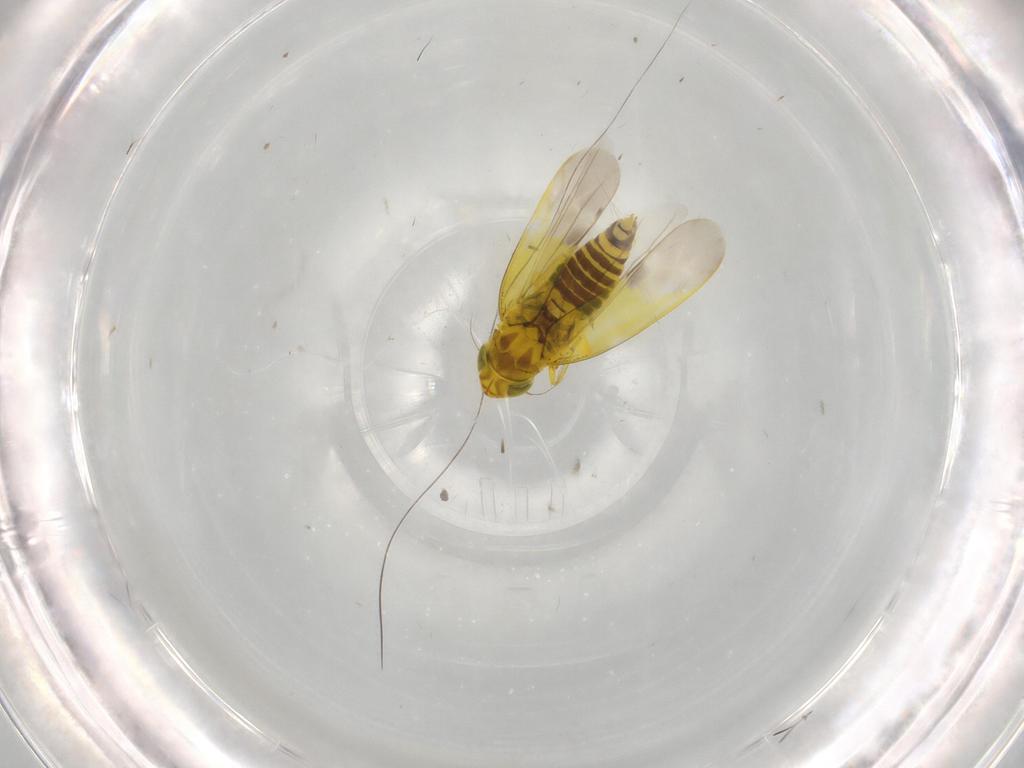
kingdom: Animalia
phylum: Arthropoda
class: Insecta
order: Hemiptera
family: Cicadellidae
